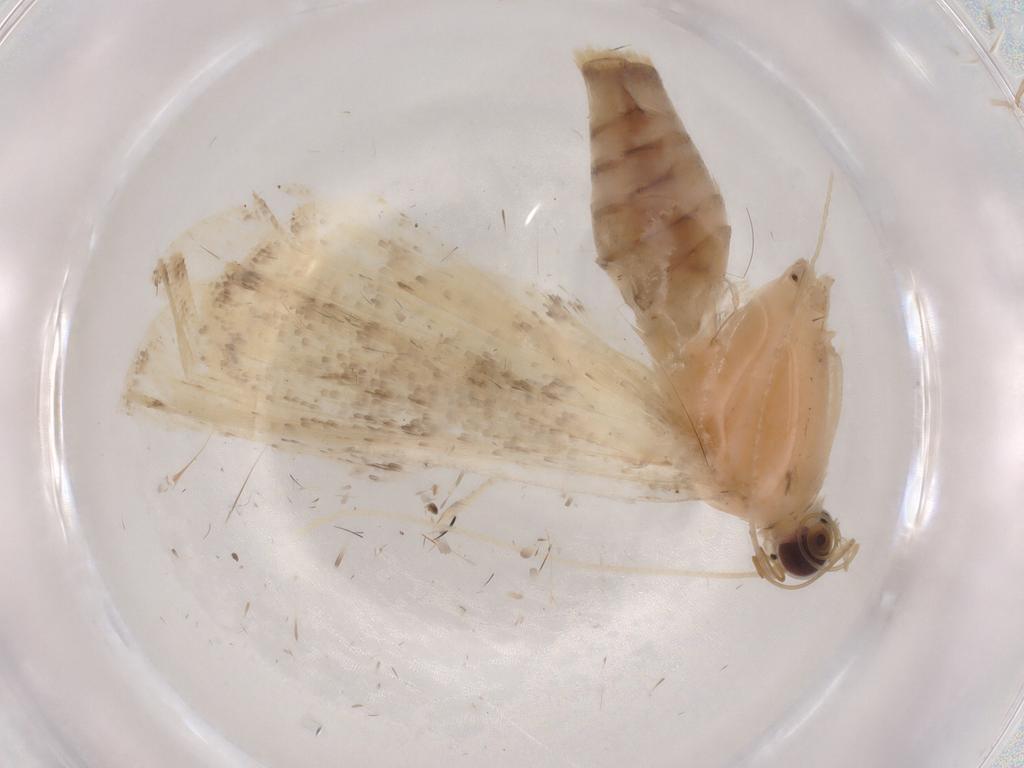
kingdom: Animalia
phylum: Arthropoda
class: Insecta
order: Lepidoptera
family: Crambidae
